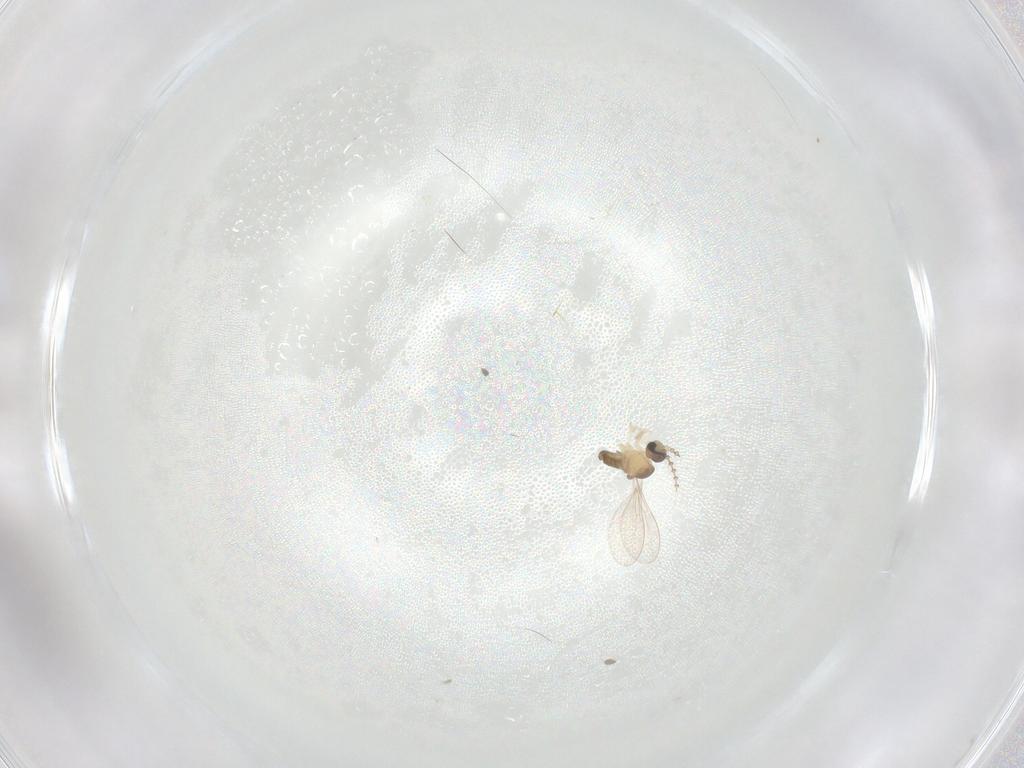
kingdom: Animalia
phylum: Arthropoda
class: Insecta
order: Diptera
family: Cecidomyiidae
